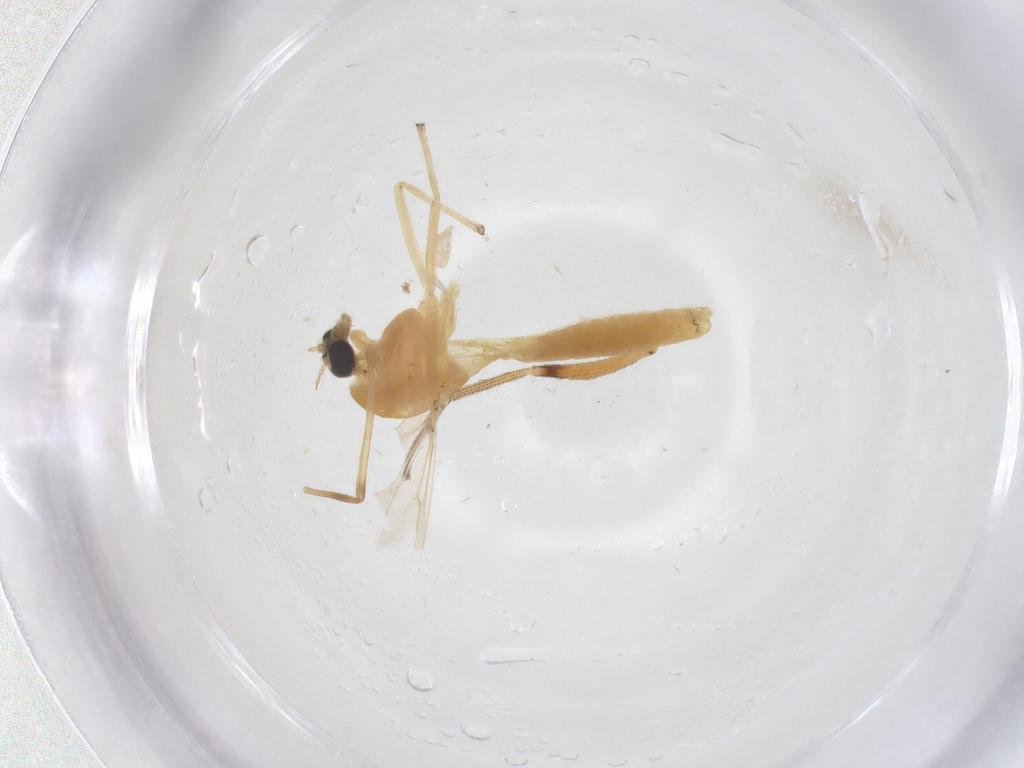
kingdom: Animalia
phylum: Arthropoda
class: Insecta
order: Diptera
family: Chironomidae
